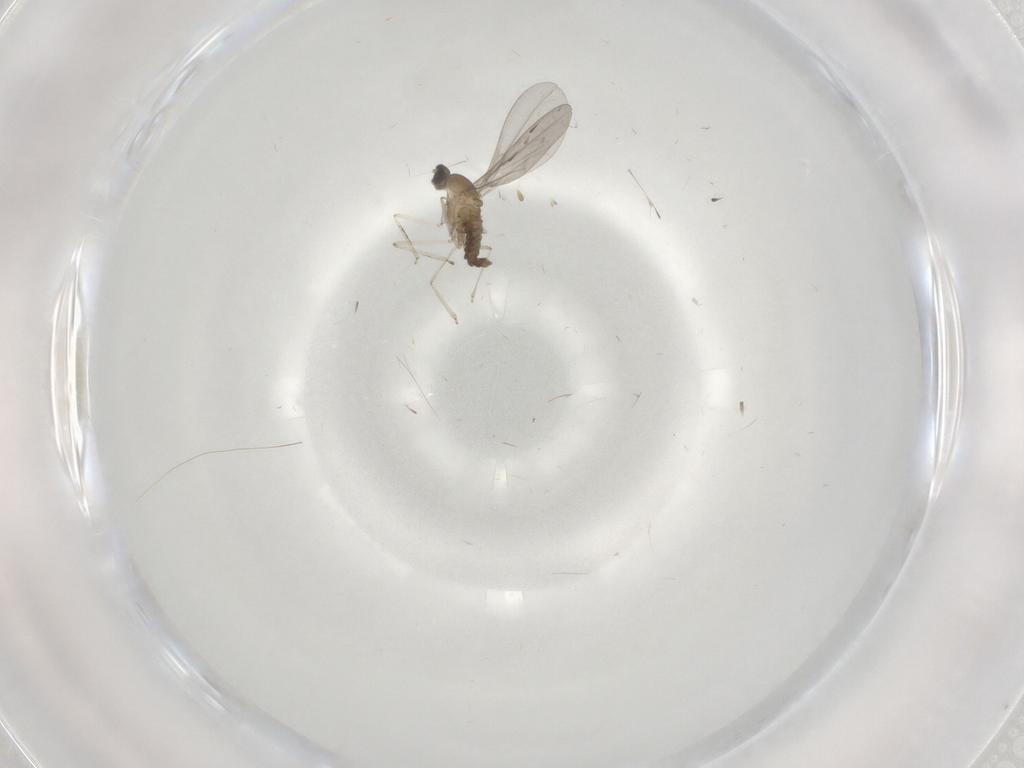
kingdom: Animalia
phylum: Arthropoda
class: Insecta
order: Diptera
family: Cecidomyiidae
